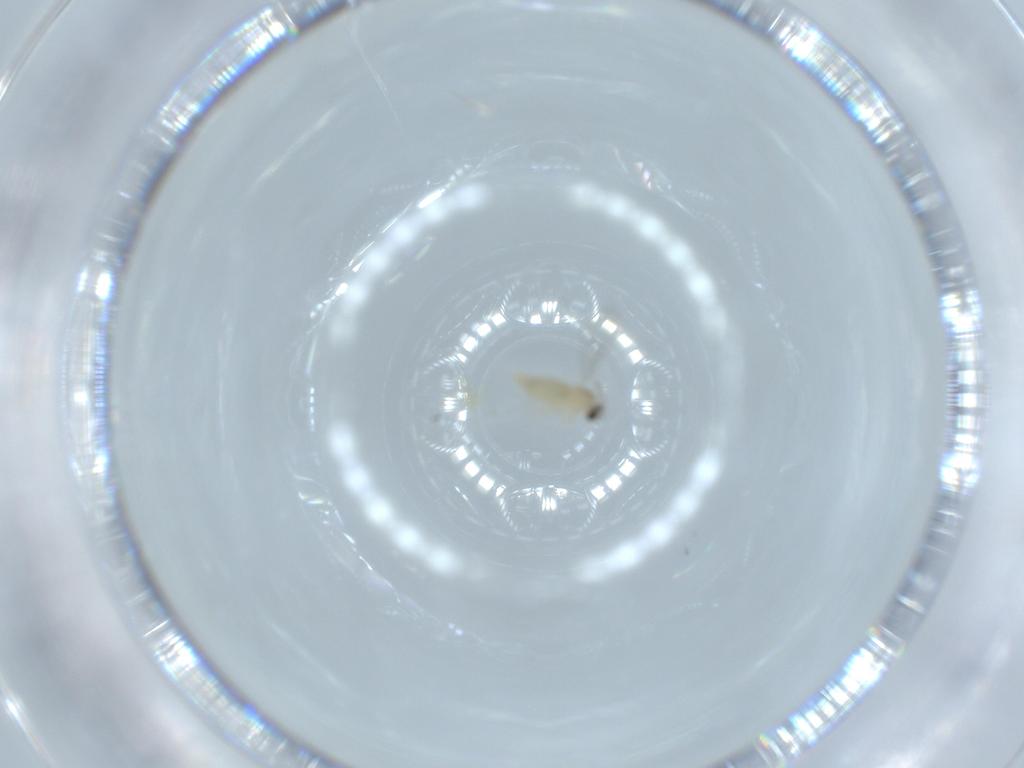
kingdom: Animalia
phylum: Arthropoda
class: Insecta
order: Diptera
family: Cecidomyiidae
